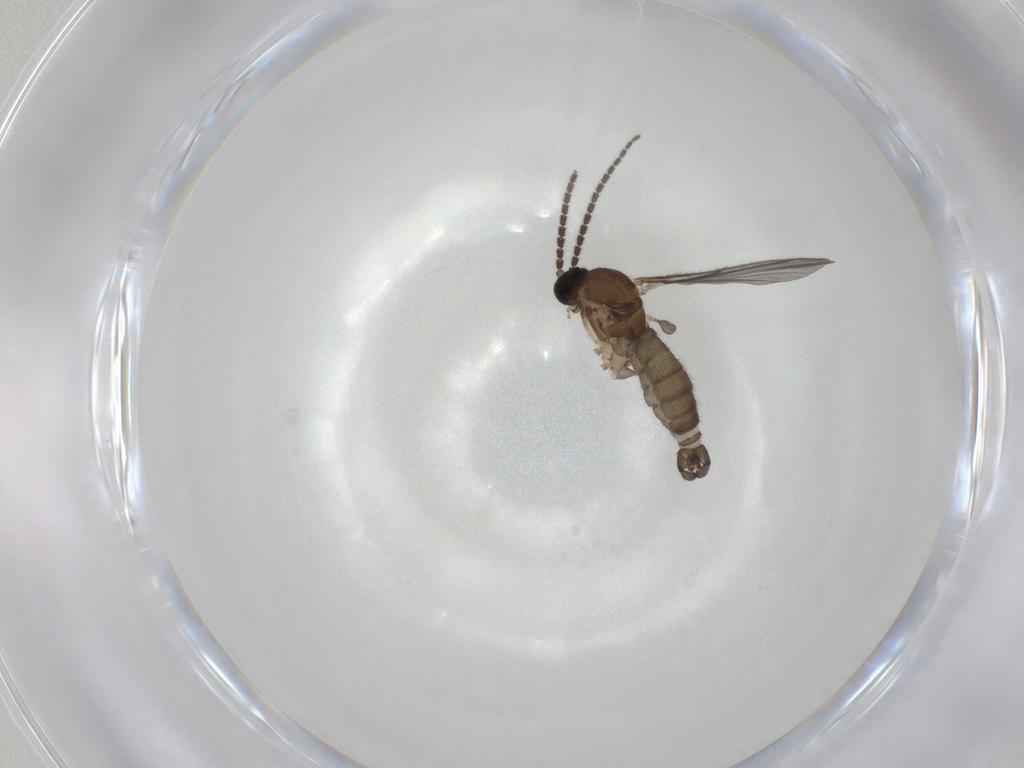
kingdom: Animalia
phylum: Arthropoda
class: Insecta
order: Diptera
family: Sciaridae
